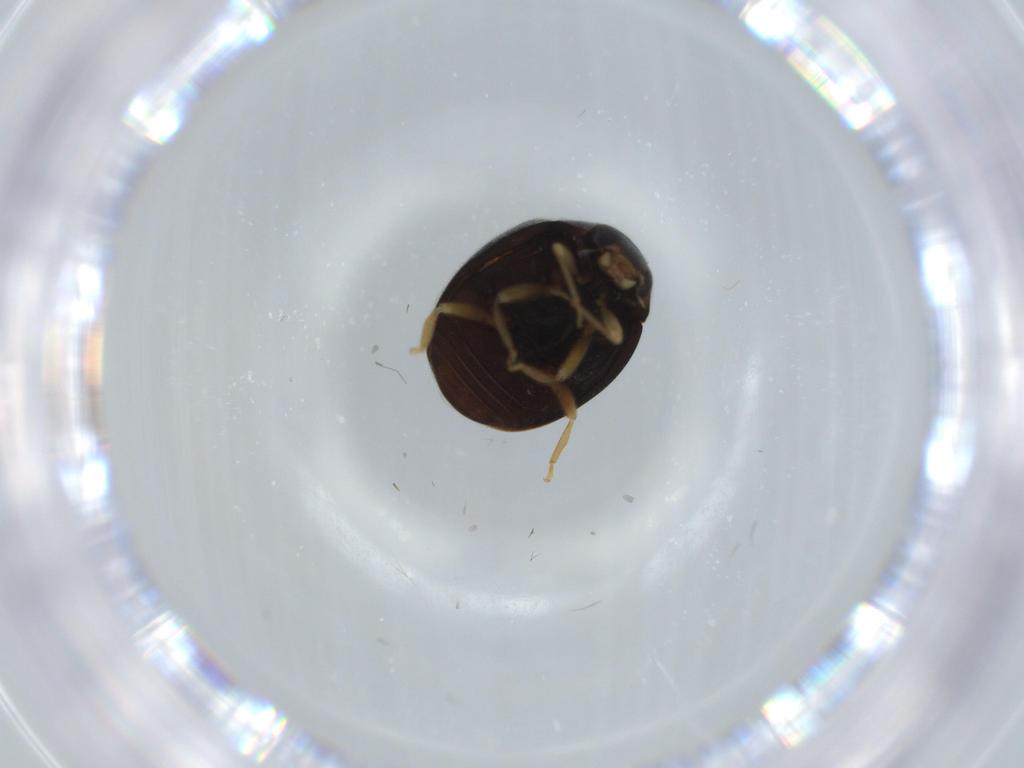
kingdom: Animalia
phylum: Arthropoda
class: Insecta
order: Coleoptera
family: Coccinellidae
